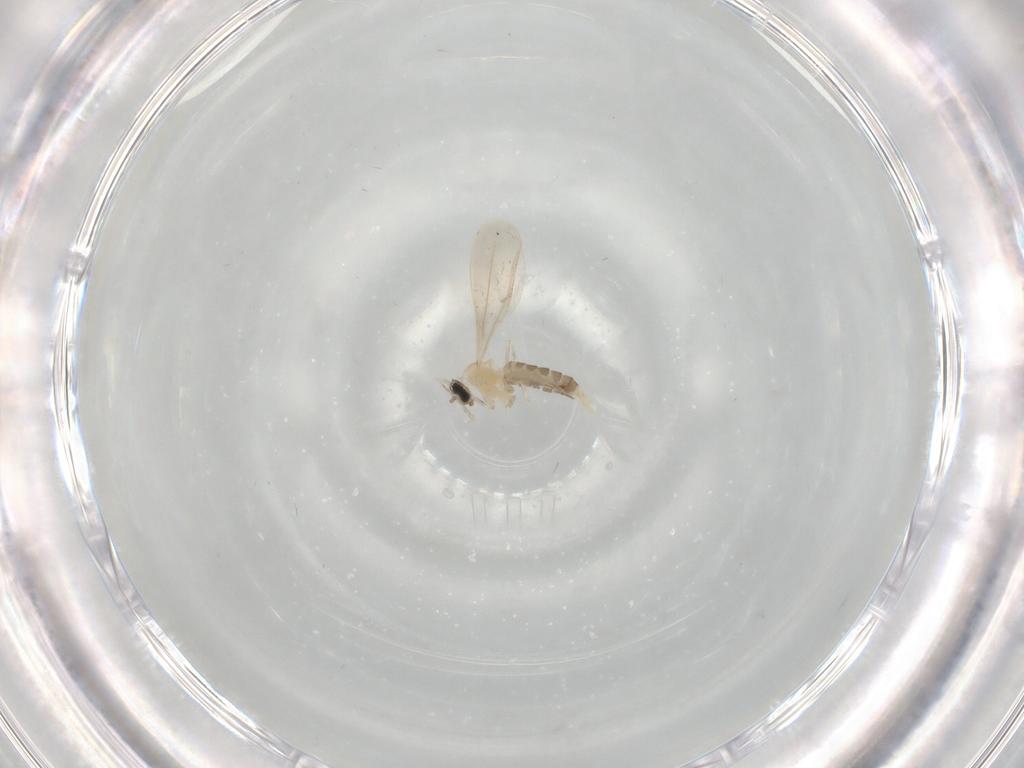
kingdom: Animalia
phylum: Arthropoda
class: Insecta
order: Diptera
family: Cecidomyiidae
